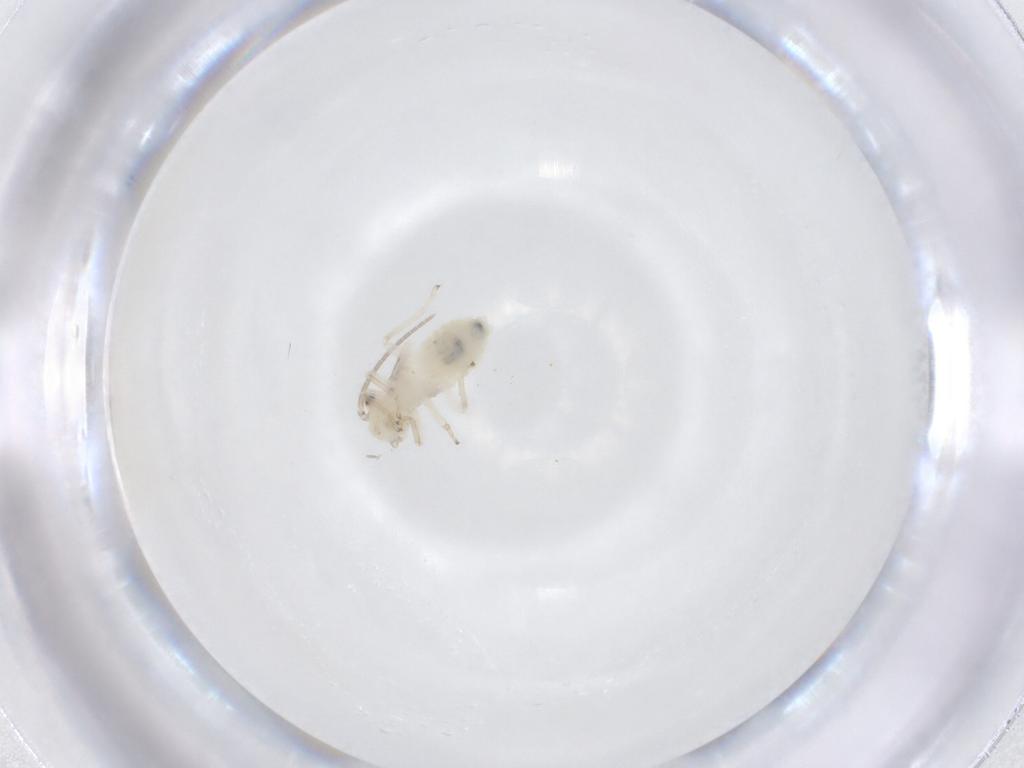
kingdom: Animalia
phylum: Arthropoda
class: Insecta
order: Psocodea
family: Caeciliusidae
